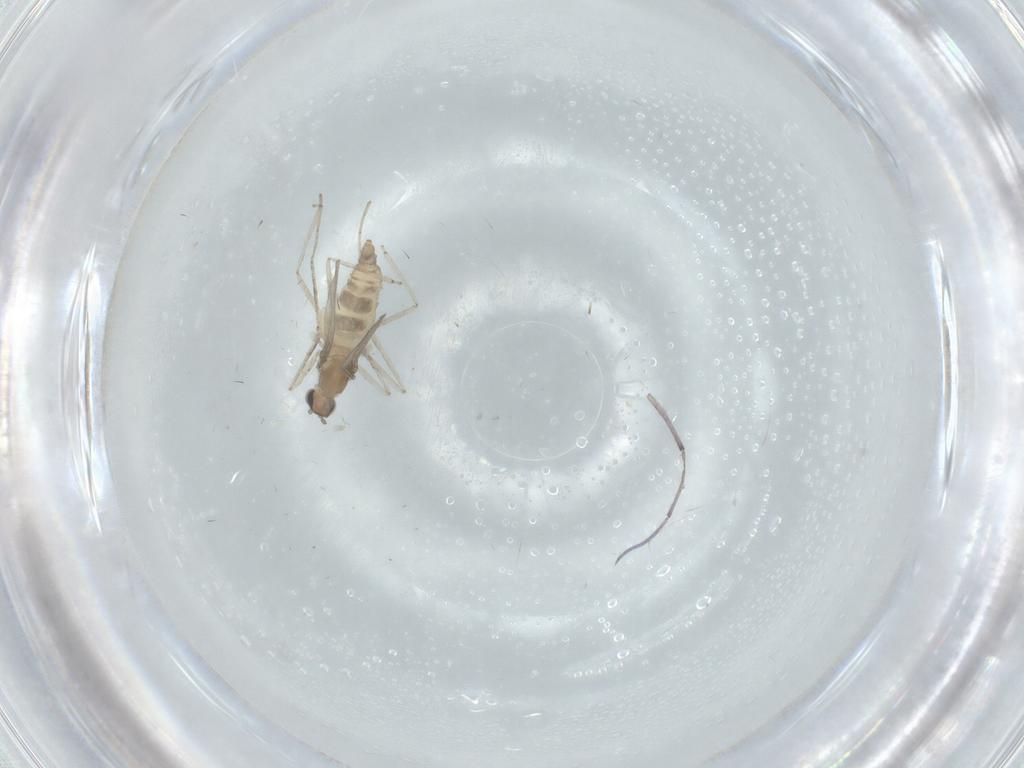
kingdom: Animalia
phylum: Arthropoda
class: Insecta
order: Diptera
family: Cecidomyiidae
